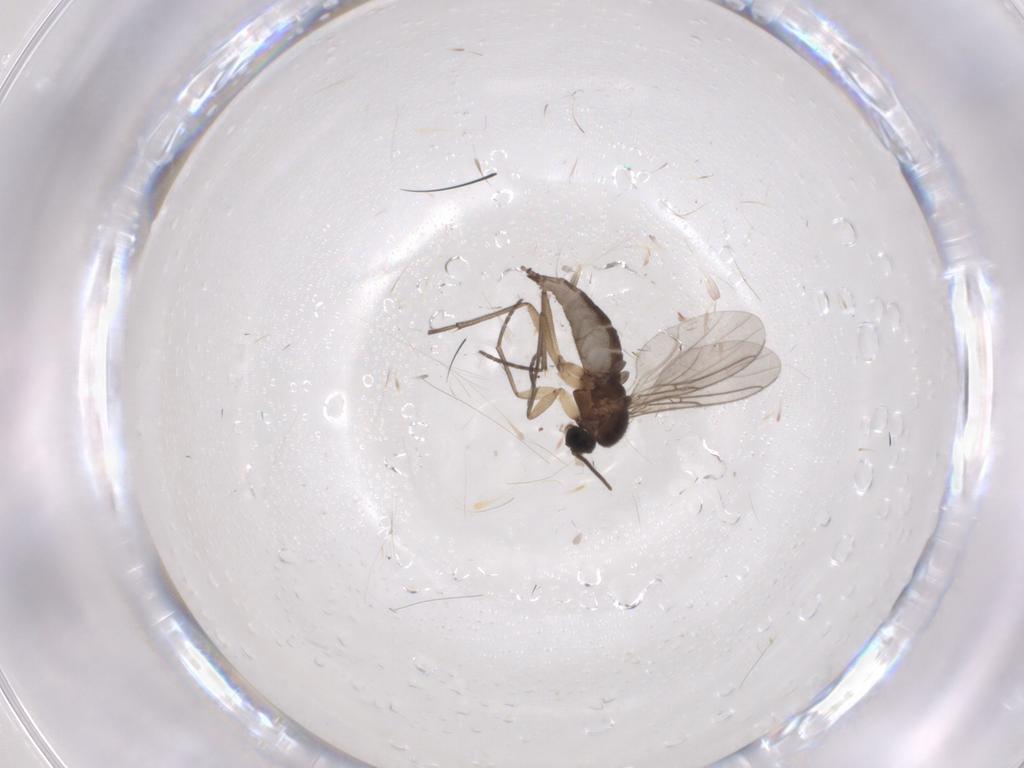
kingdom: Animalia
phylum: Arthropoda
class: Insecta
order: Diptera
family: Sciaridae
